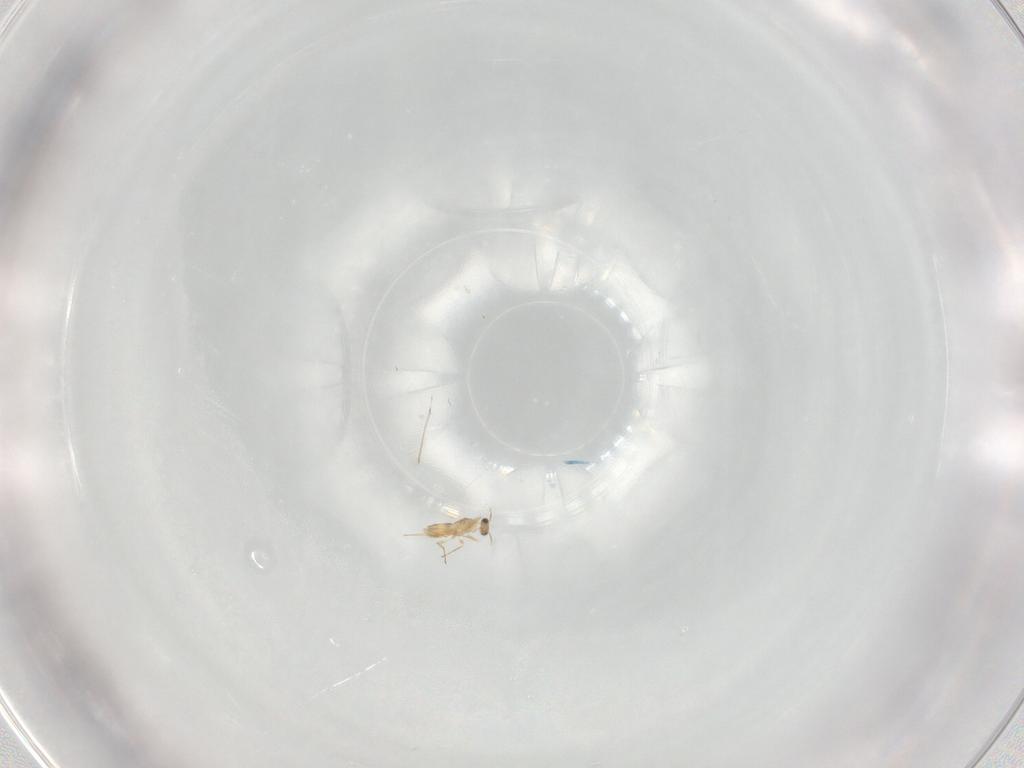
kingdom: Animalia
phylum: Arthropoda
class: Insecta
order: Hymenoptera
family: Mymaridae
